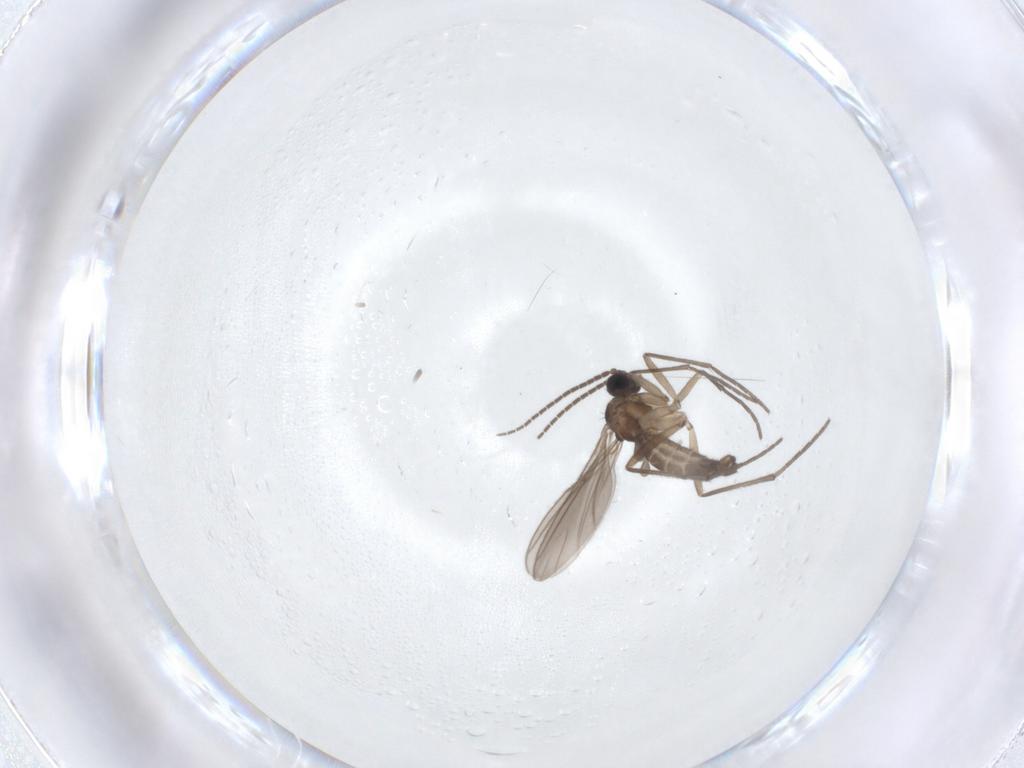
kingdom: Animalia
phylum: Arthropoda
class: Insecta
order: Diptera
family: Sciaridae
